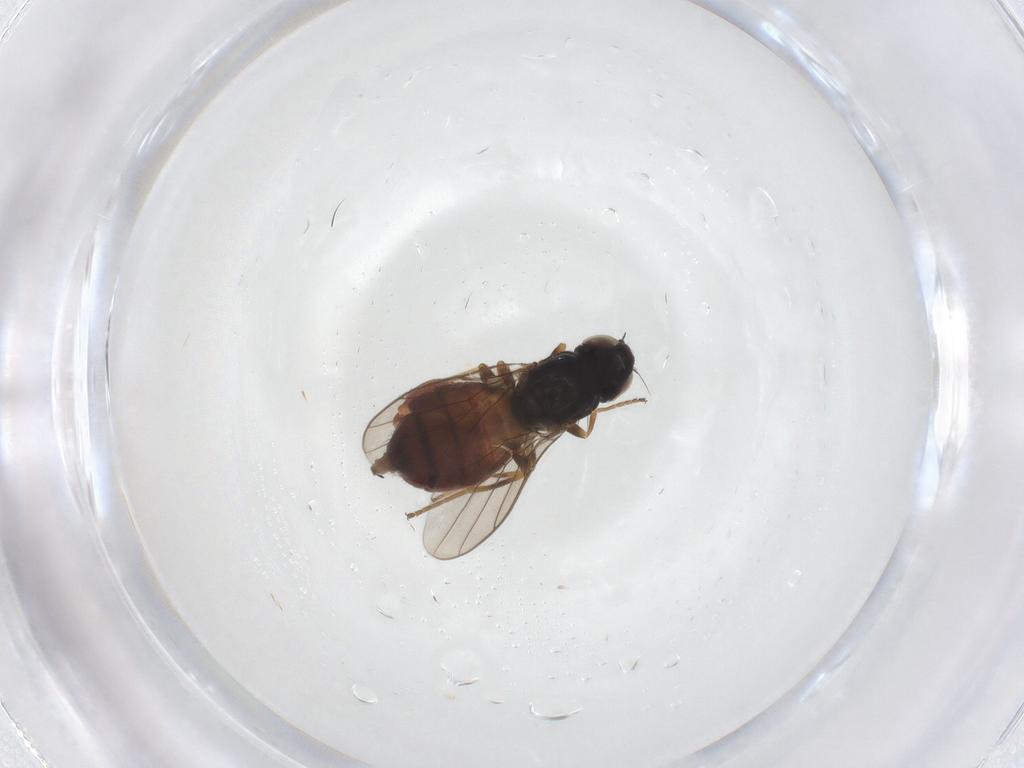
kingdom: Animalia
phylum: Arthropoda
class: Insecta
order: Diptera
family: Chloropidae
